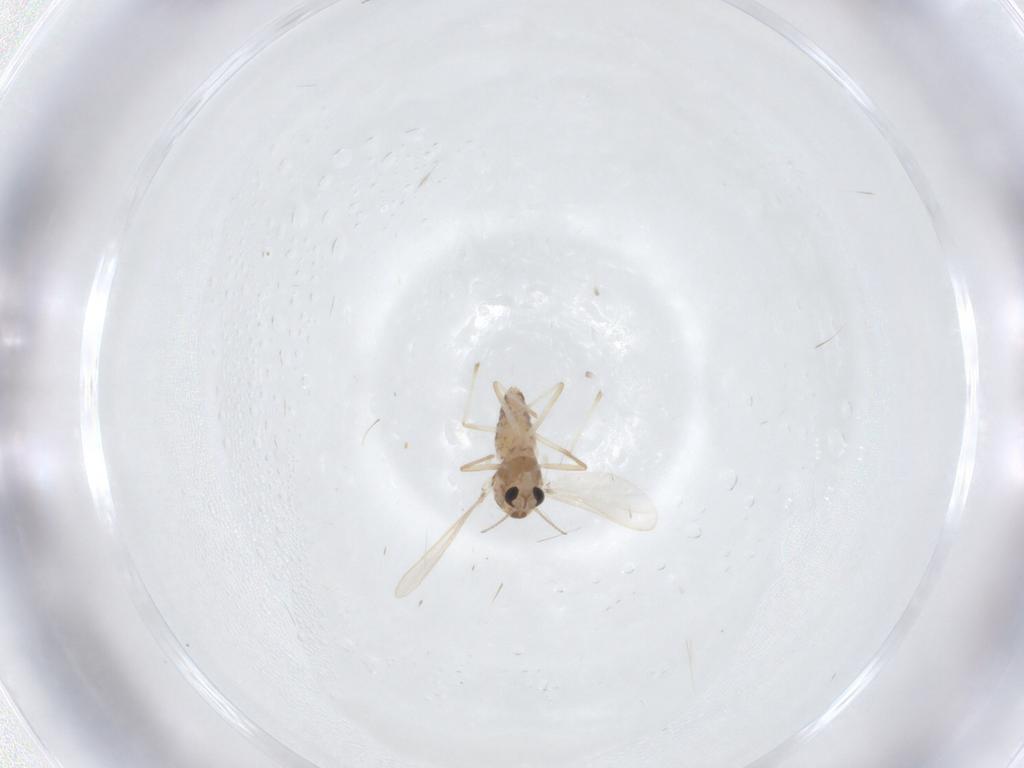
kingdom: Animalia
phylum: Arthropoda
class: Insecta
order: Diptera
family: Chironomidae
